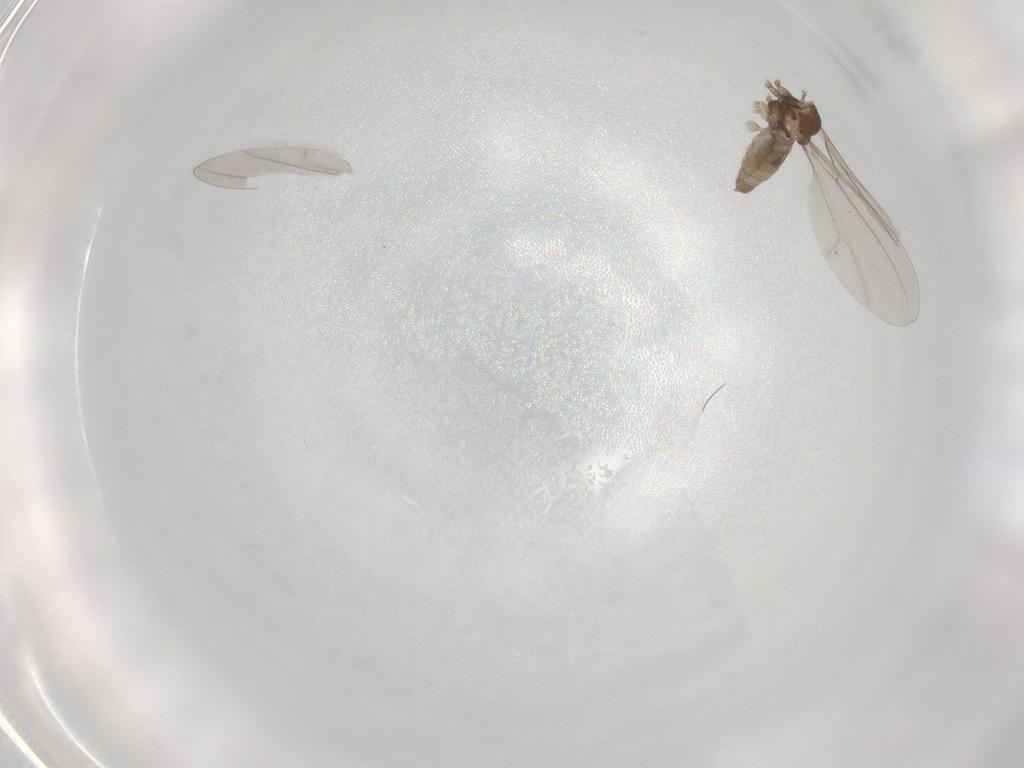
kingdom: Animalia
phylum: Arthropoda
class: Insecta
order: Diptera
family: Cecidomyiidae
